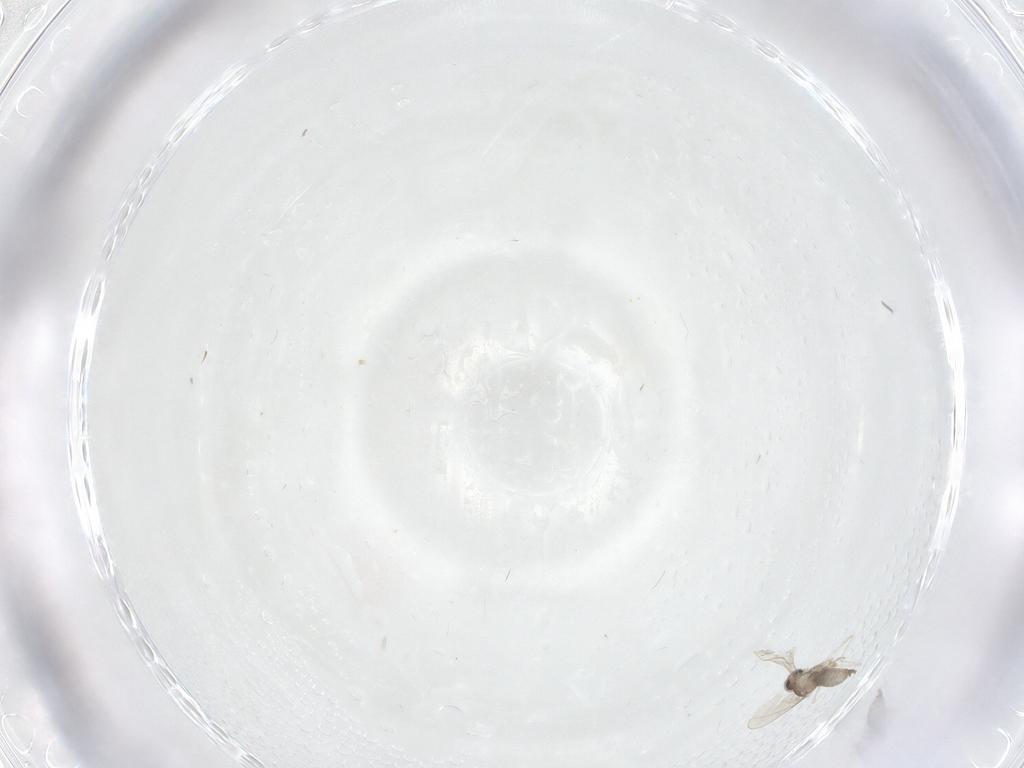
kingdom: Animalia
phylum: Arthropoda
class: Insecta
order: Diptera
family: Cecidomyiidae
